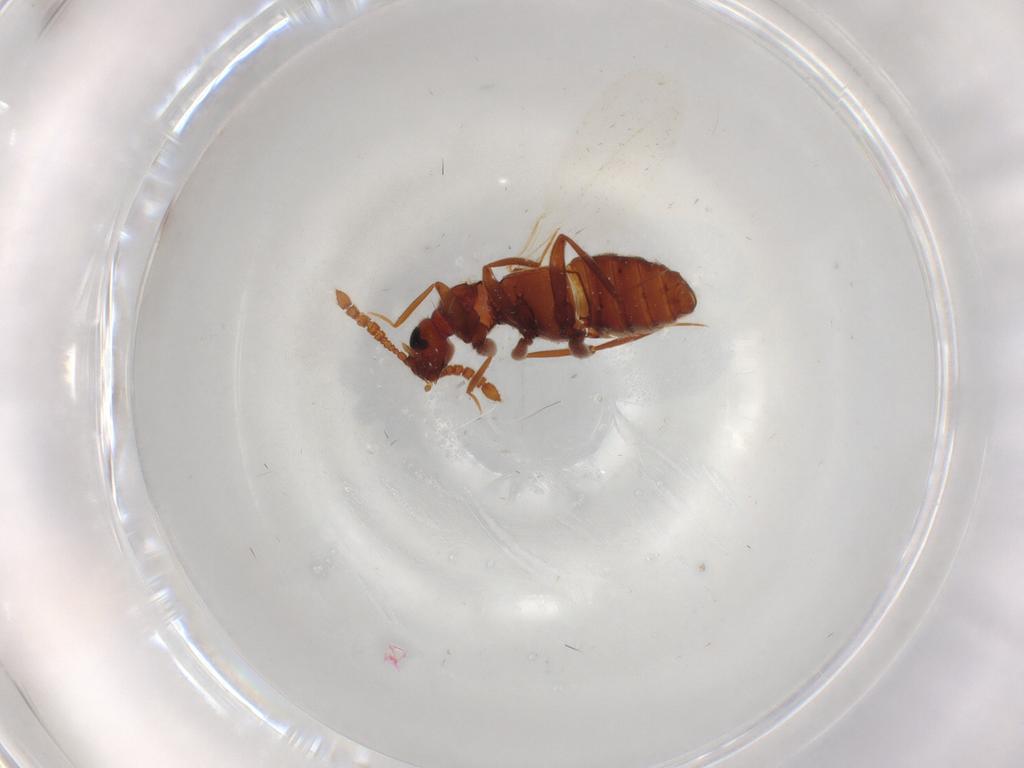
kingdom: Animalia
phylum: Arthropoda
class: Insecta
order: Coleoptera
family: Lampyridae
